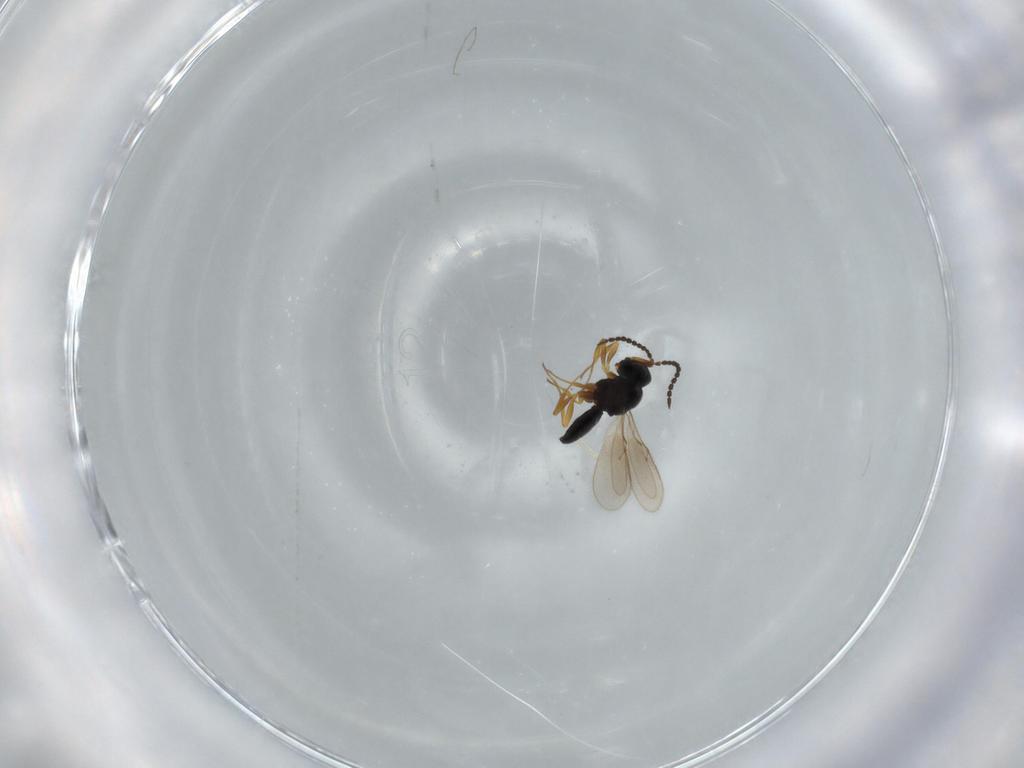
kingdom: Animalia
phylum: Arthropoda
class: Insecta
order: Hymenoptera
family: Scelionidae
